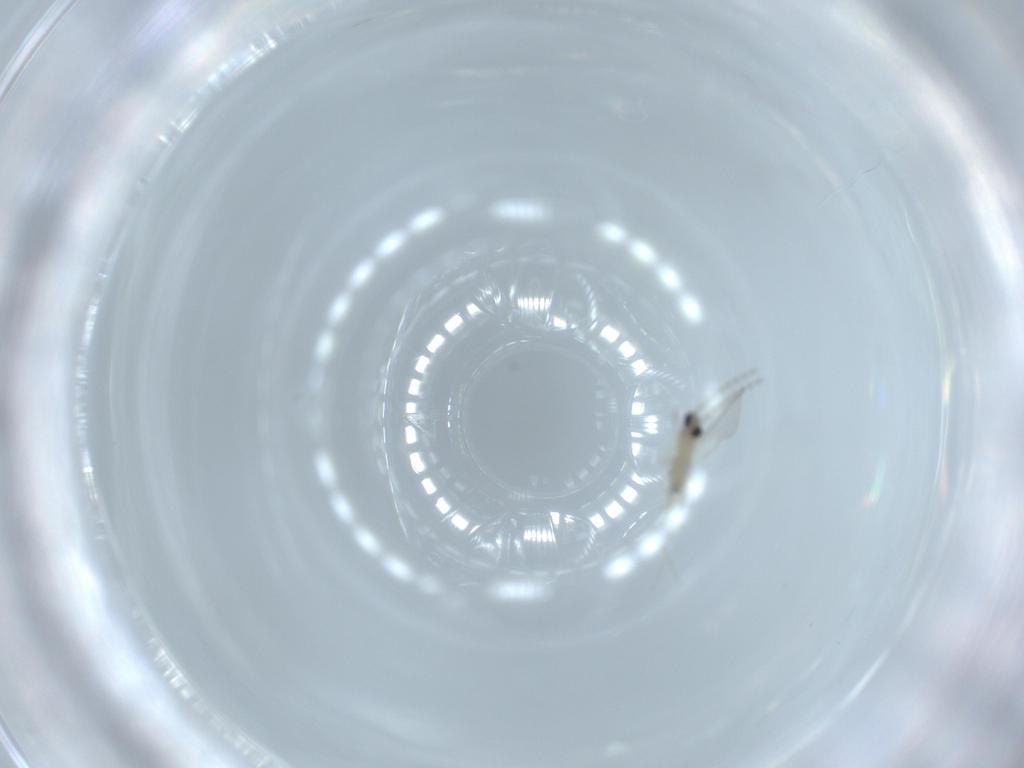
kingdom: Animalia
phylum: Arthropoda
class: Insecta
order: Diptera
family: Cecidomyiidae
